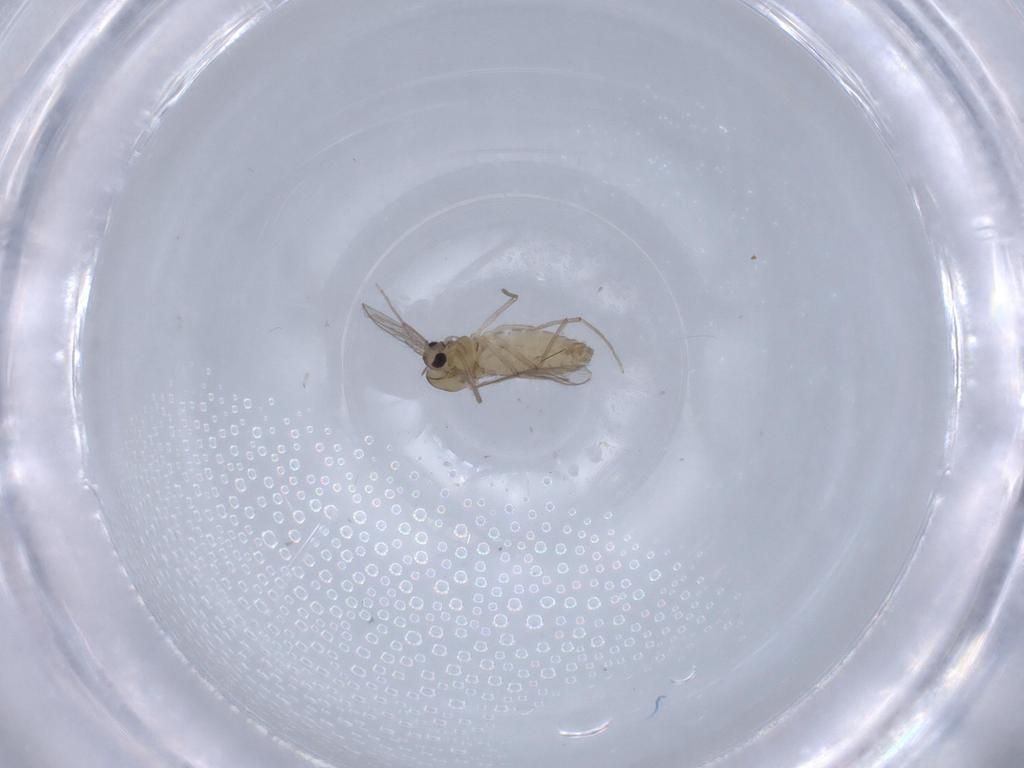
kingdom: Animalia
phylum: Arthropoda
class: Insecta
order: Diptera
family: Chironomidae
